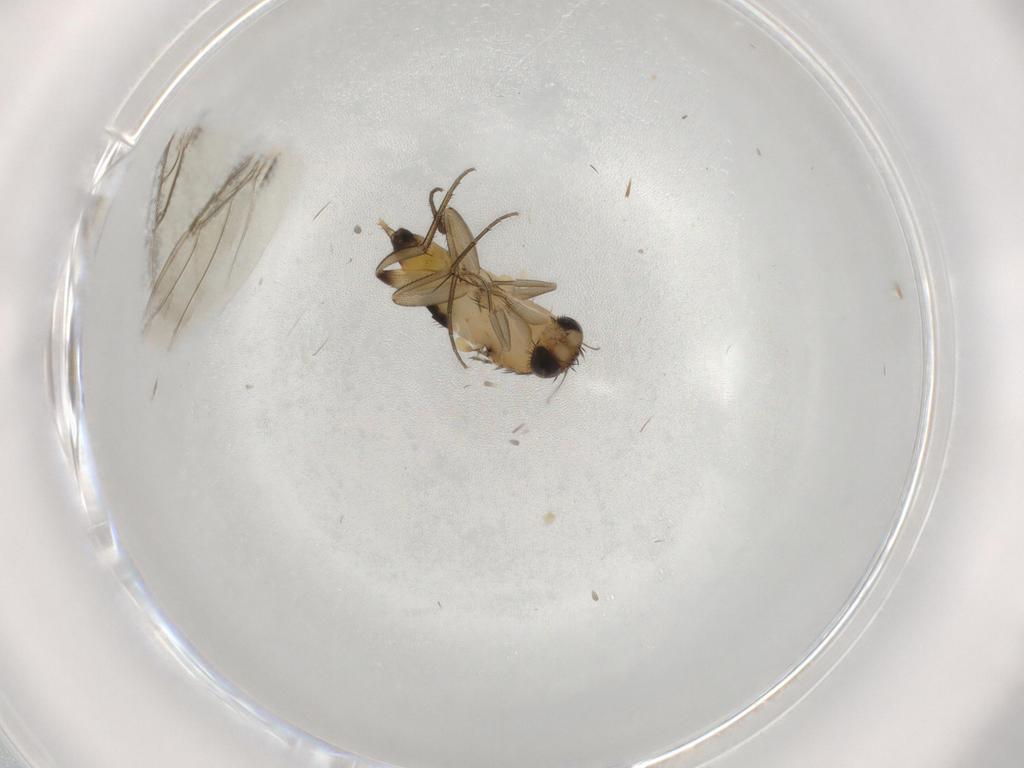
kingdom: Animalia
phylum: Arthropoda
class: Insecta
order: Diptera
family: Phoridae
